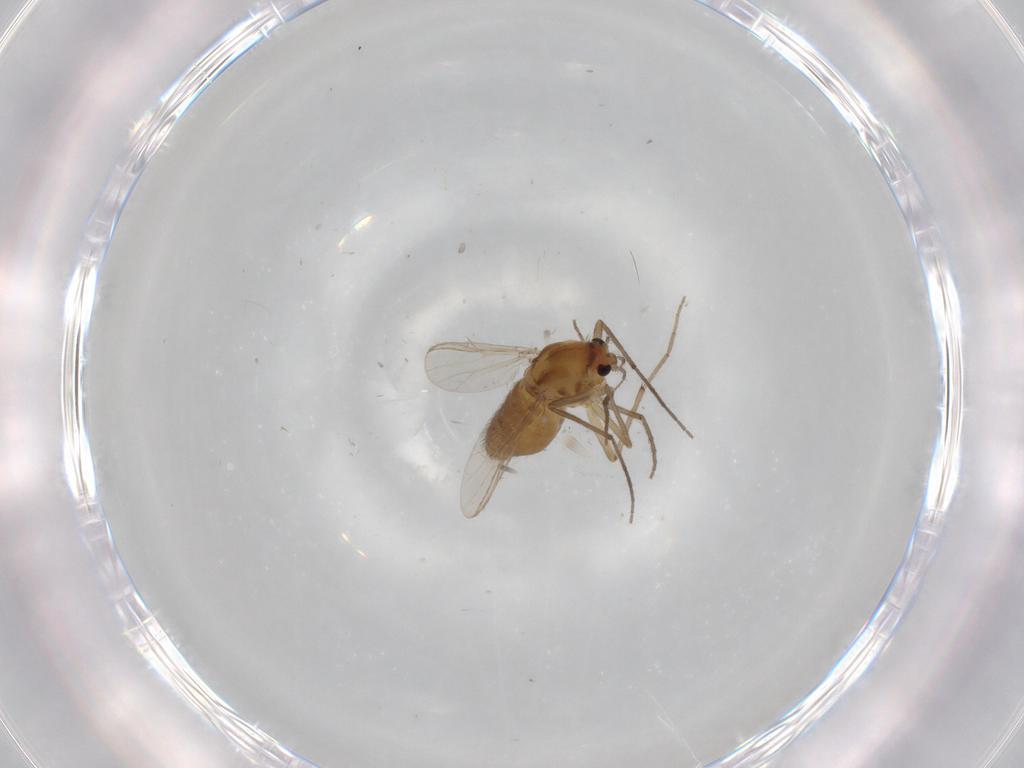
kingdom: Animalia
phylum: Arthropoda
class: Insecta
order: Diptera
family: Chironomidae
